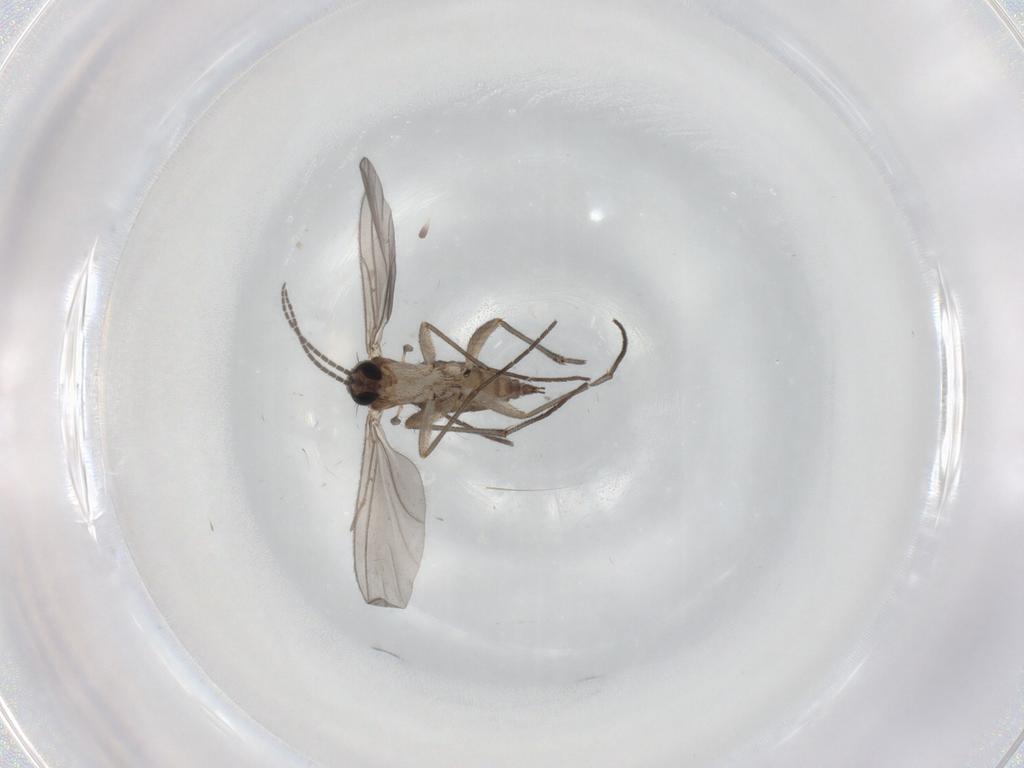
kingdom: Animalia
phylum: Arthropoda
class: Insecta
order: Diptera
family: Sciaridae
